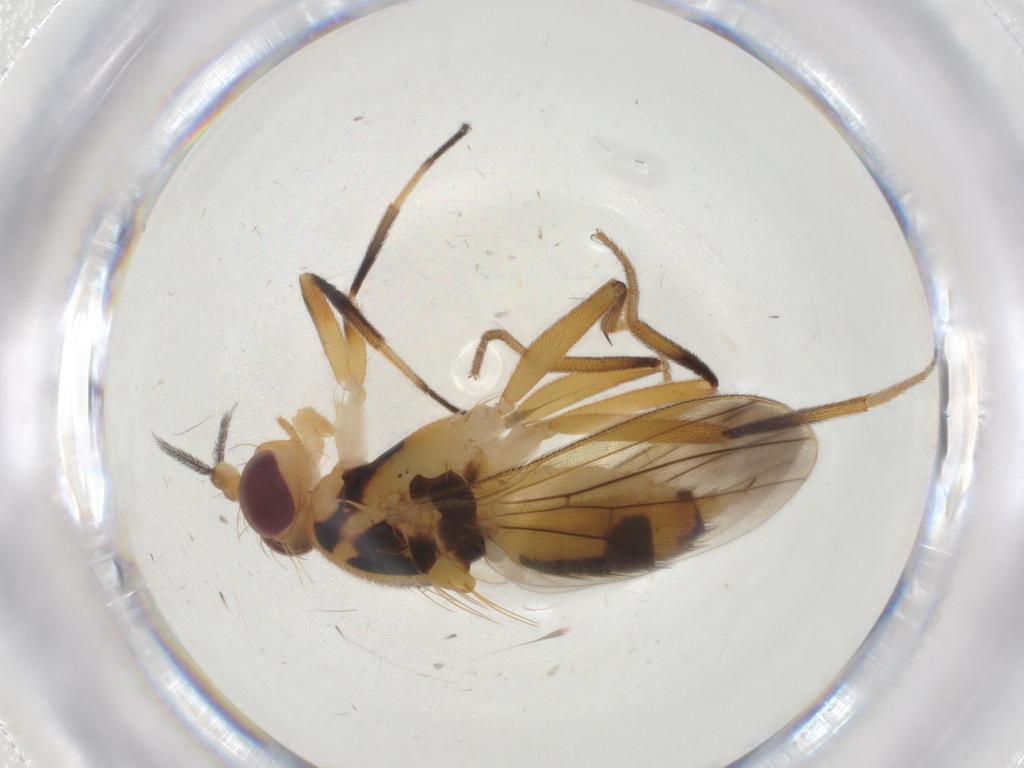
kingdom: Animalia
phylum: Arthropoda
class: Insecta
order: Diptera
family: Clusiidae
